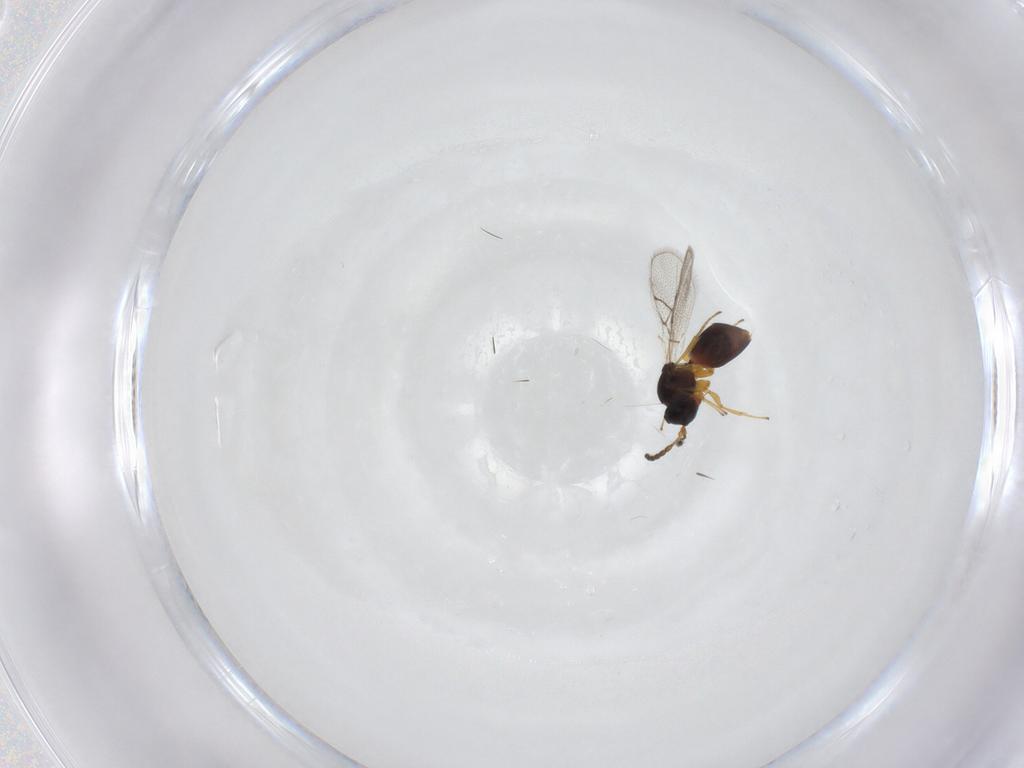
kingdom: Animalia
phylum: Arthropoda
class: Insecta
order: Hymenoptera
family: Figitidae
